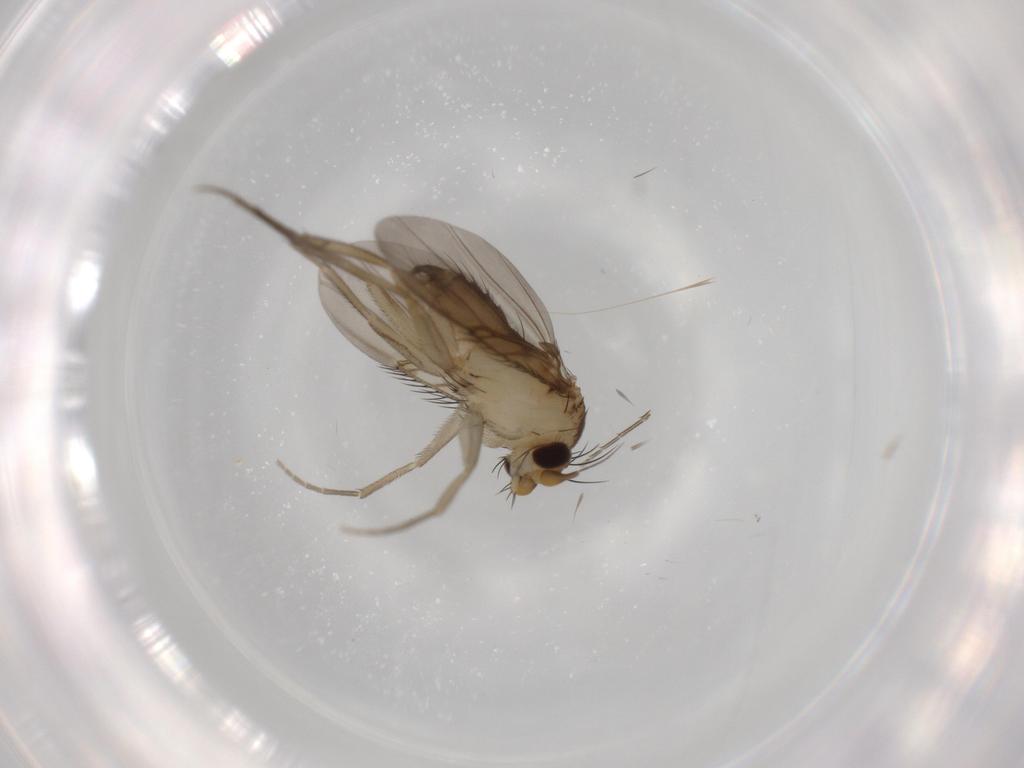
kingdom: Animalia
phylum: Arthropoda
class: Insecta
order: Diptera
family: Phoridae
